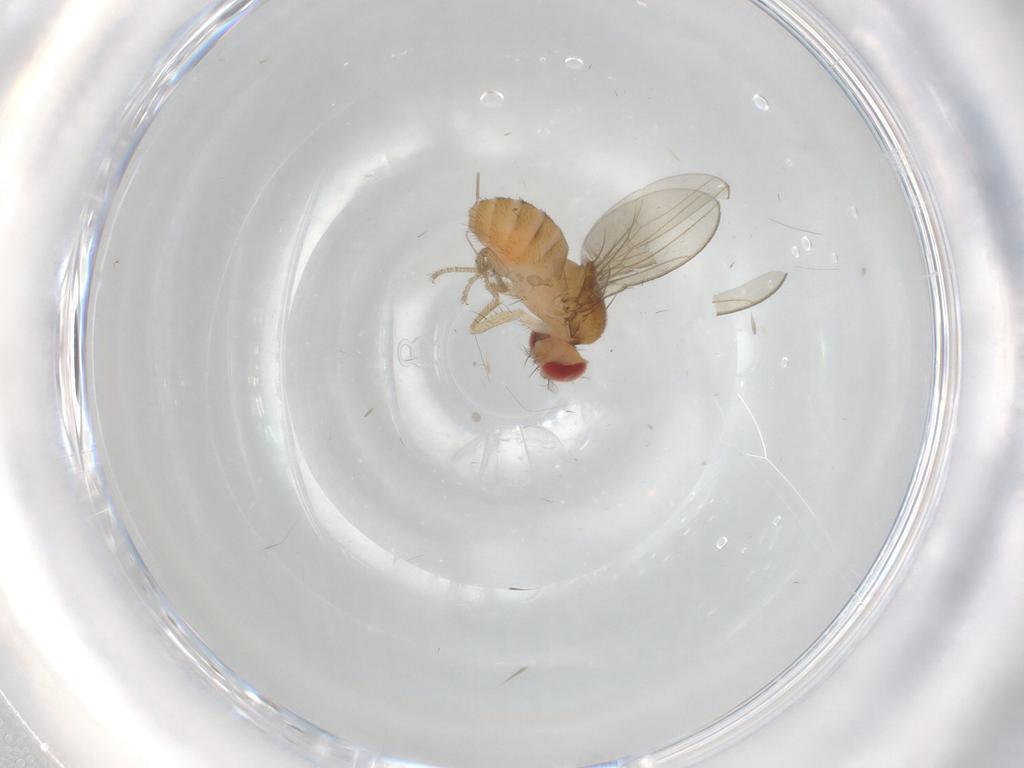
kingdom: Animalia
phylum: Arthropoda
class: Insecta
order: Diptera
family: Drosophilidae
